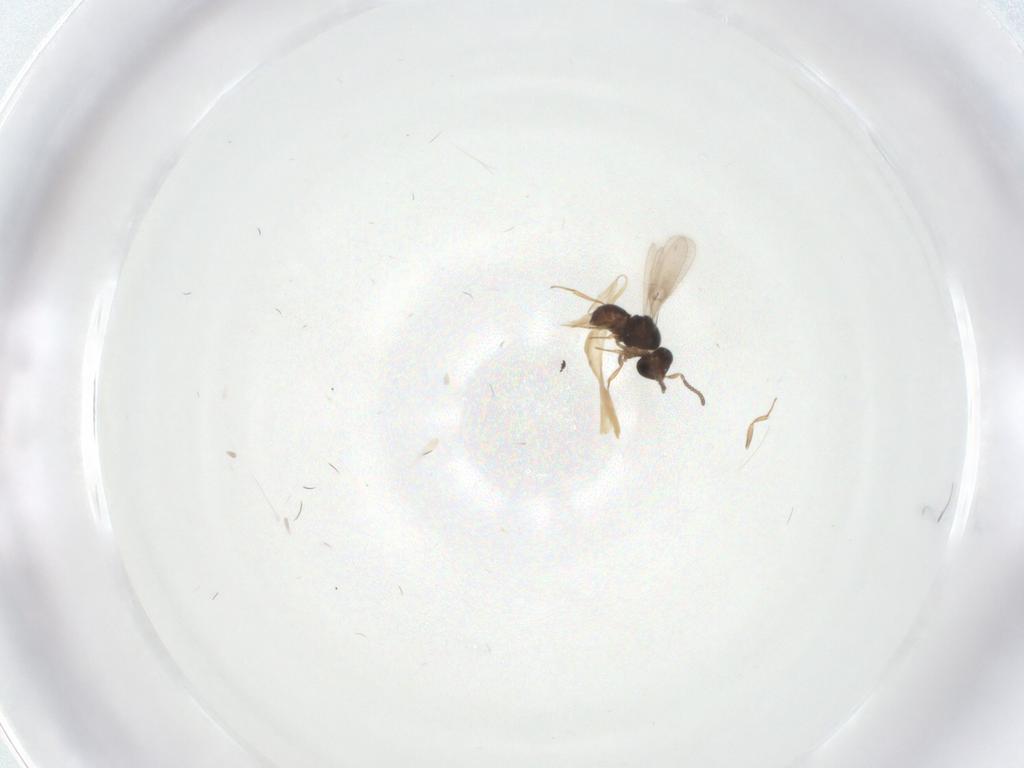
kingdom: Animalia
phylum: Arthropoda
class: Insecta
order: Hymenoptera
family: Scelionidae
